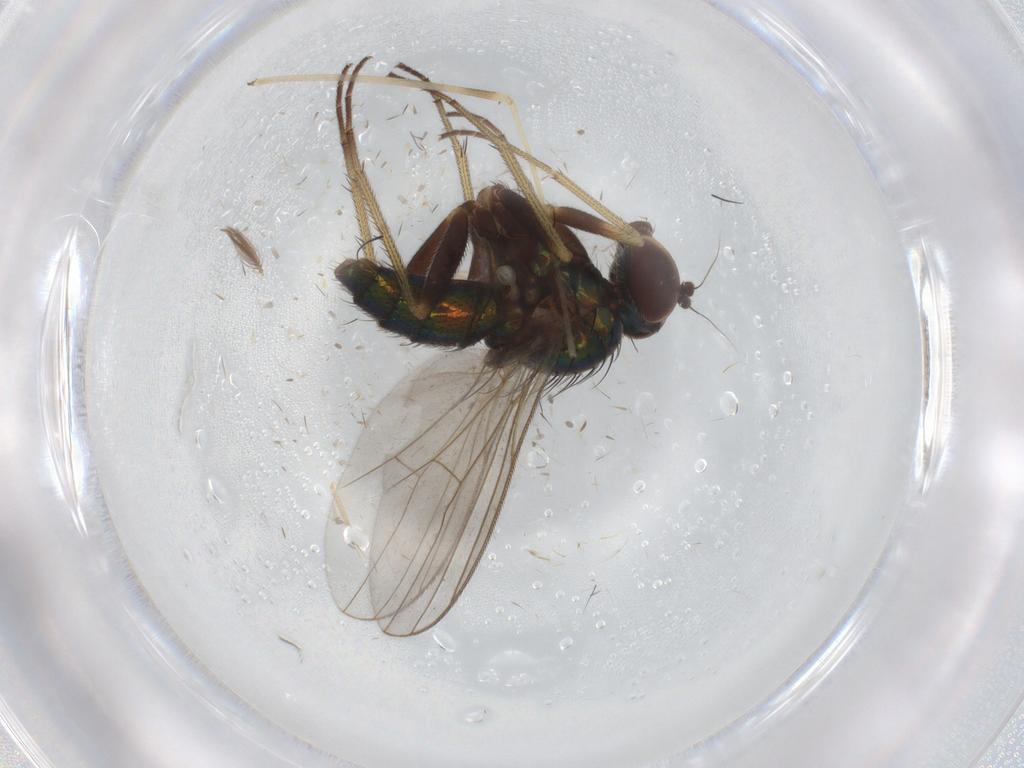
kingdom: Animalia
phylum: Arthropoda
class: Insecta
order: Diptera
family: Dolichopodidae
